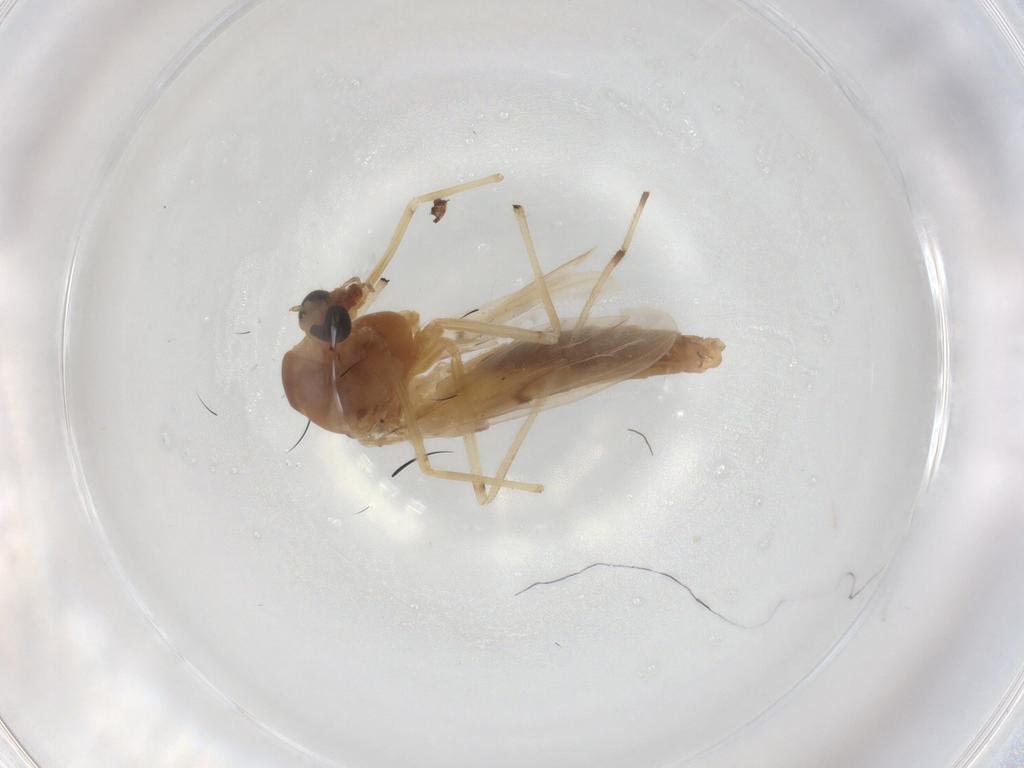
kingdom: Animalia
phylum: Arthropoda
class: Insecta
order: Diptera
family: Chironomidae
